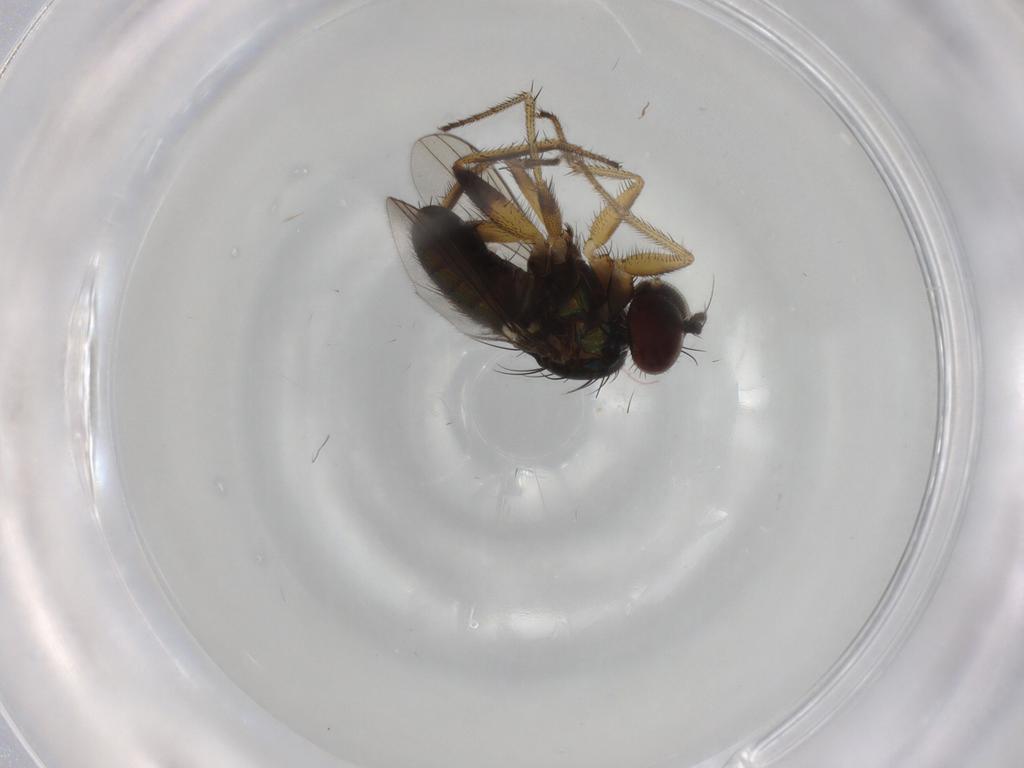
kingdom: Animalia
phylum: Arthropoda
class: Insecta
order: Diptera
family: Dolichopodidae
